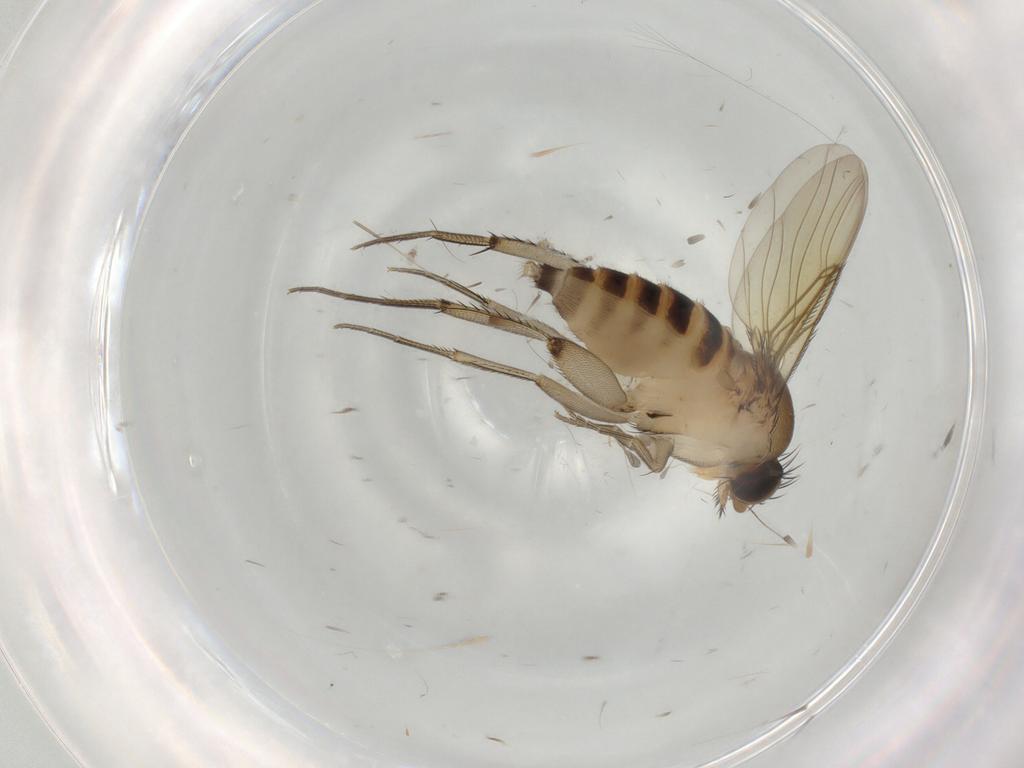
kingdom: Animalia
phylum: Arthropoda
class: Insecta
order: Diptera
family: Phoridae
